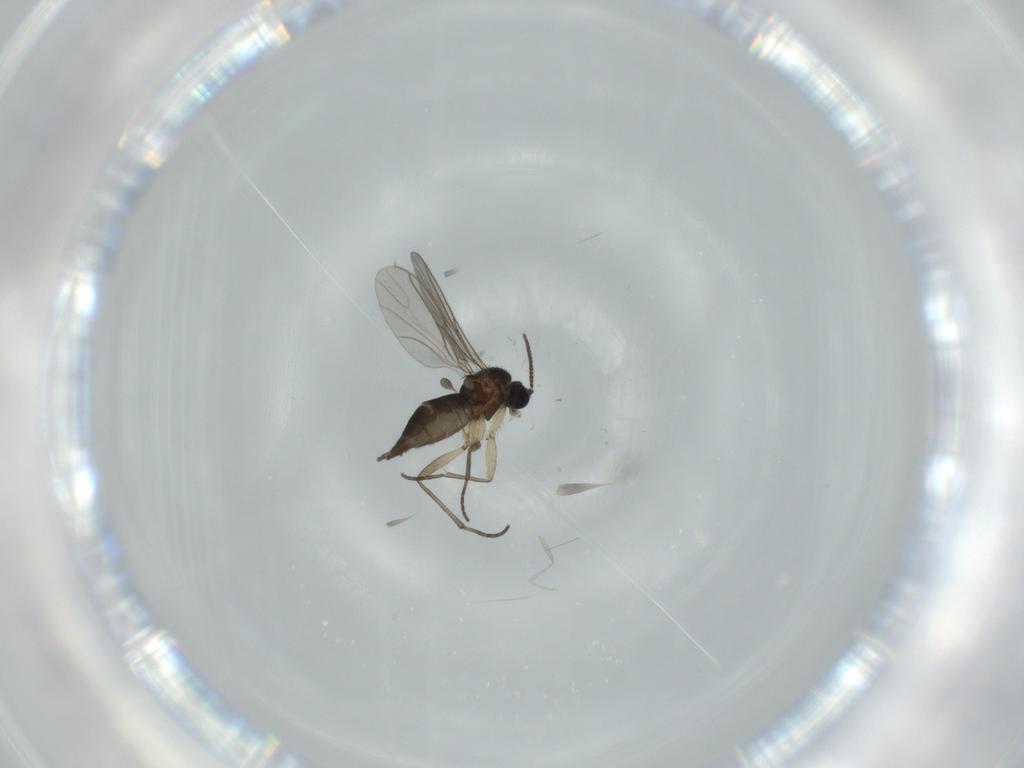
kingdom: Animalia
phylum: Arthropoda
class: Insecta
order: Diptera
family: Sciaridae
